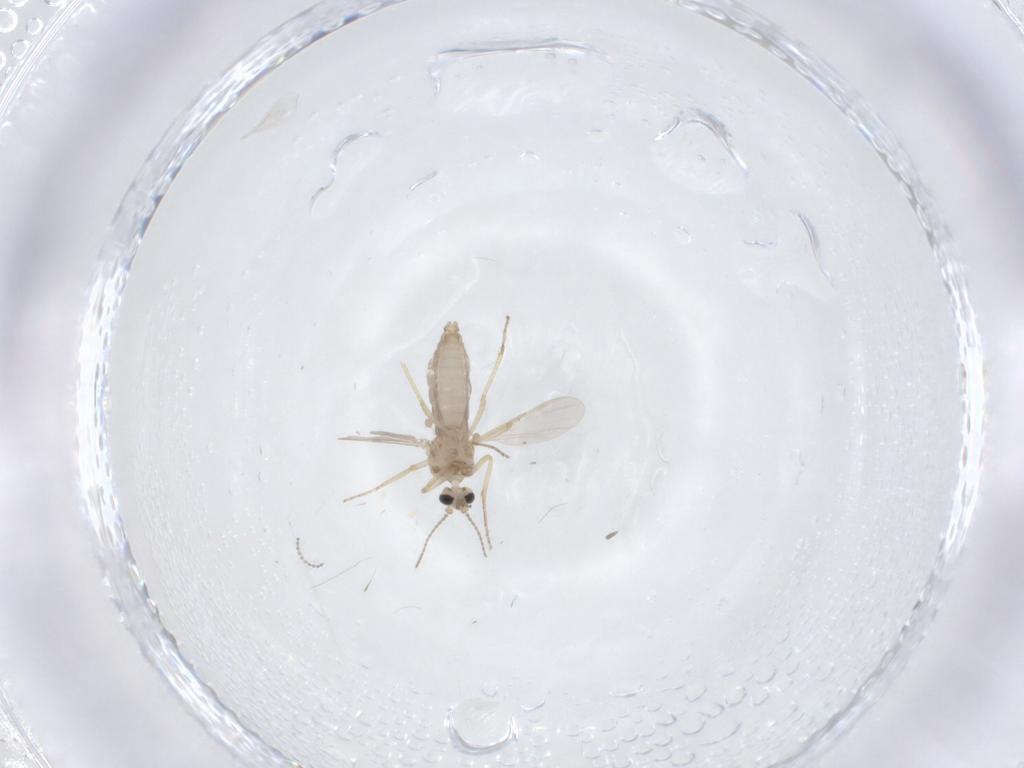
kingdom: Animalia
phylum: Arthropoda
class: Insecta
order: Diptera
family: Ceratopogonidae
